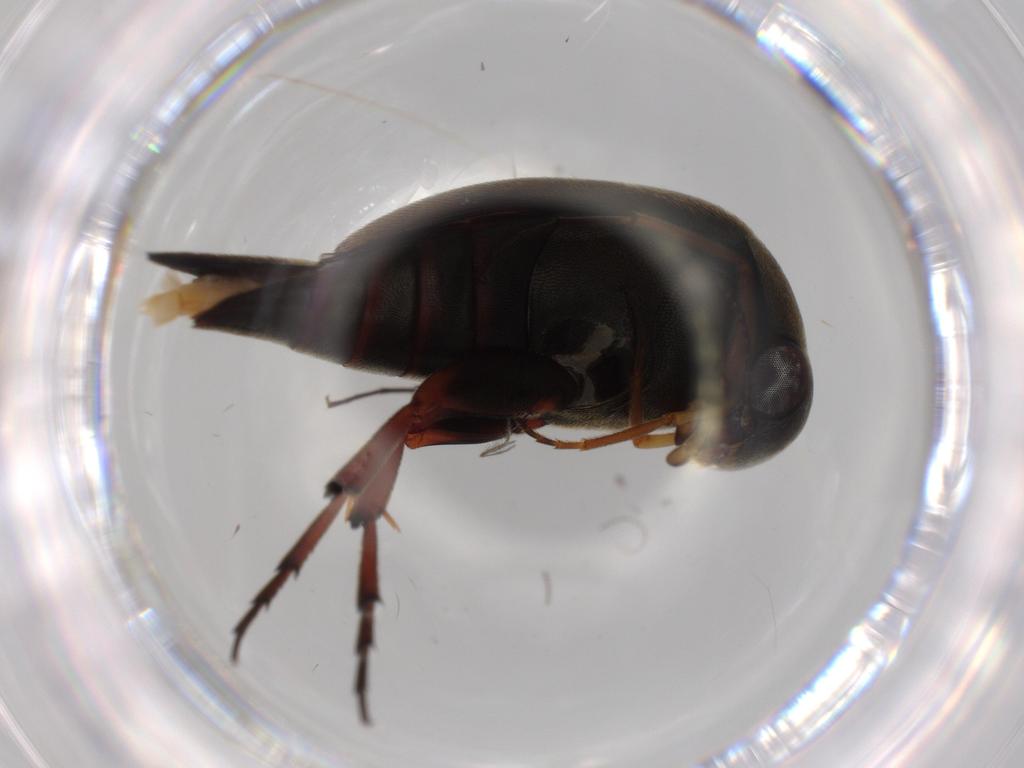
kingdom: Animalia
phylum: Arthropoda
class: Insecta
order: Coleoptera
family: Mordellidae
